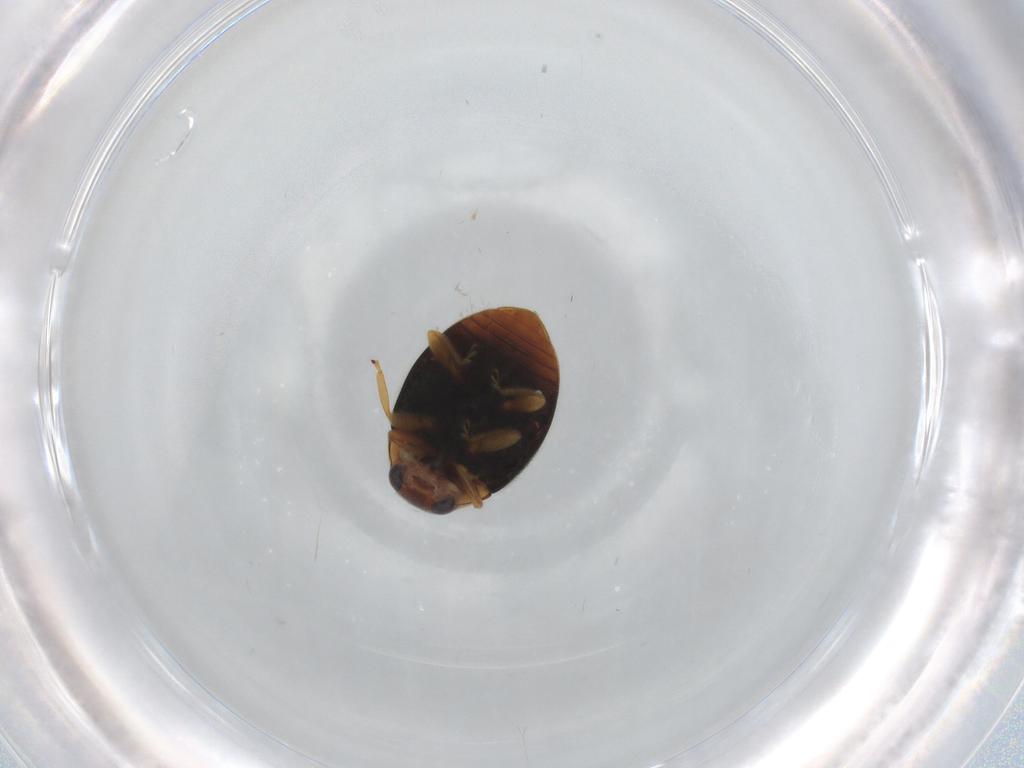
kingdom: Animalia
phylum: Arthropoda
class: Insecta
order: Coleoptera
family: Coccinellidae
